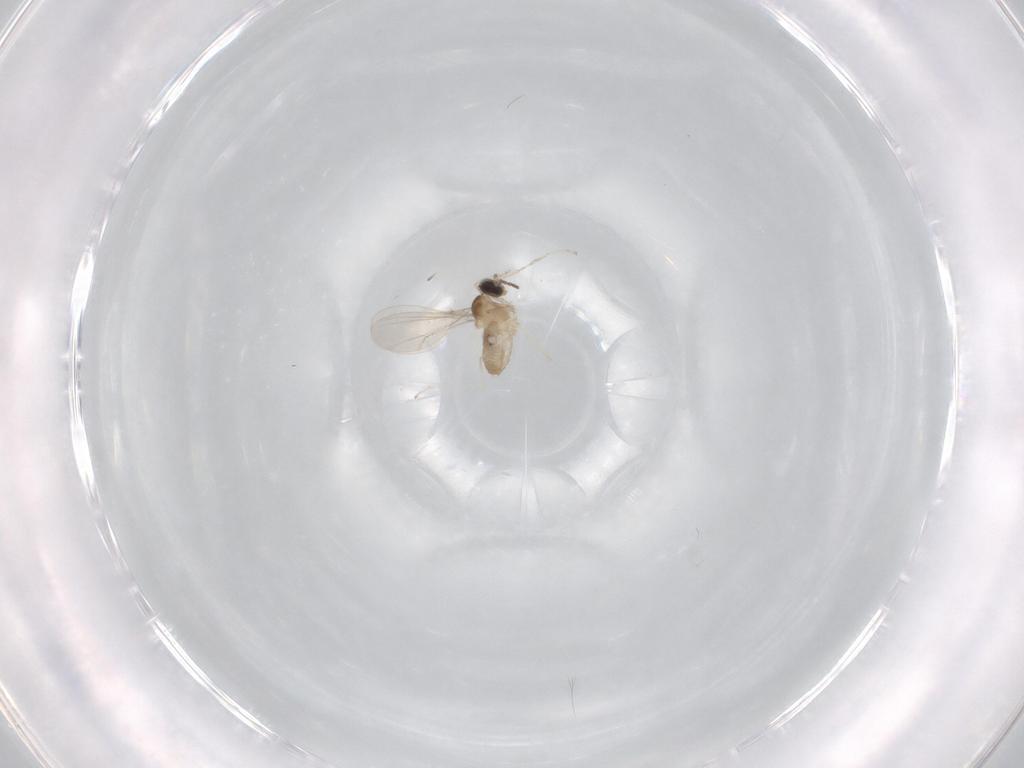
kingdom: Animalia
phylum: Arthropoda
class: Insecta
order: Diptera
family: Cecidomyiidae
